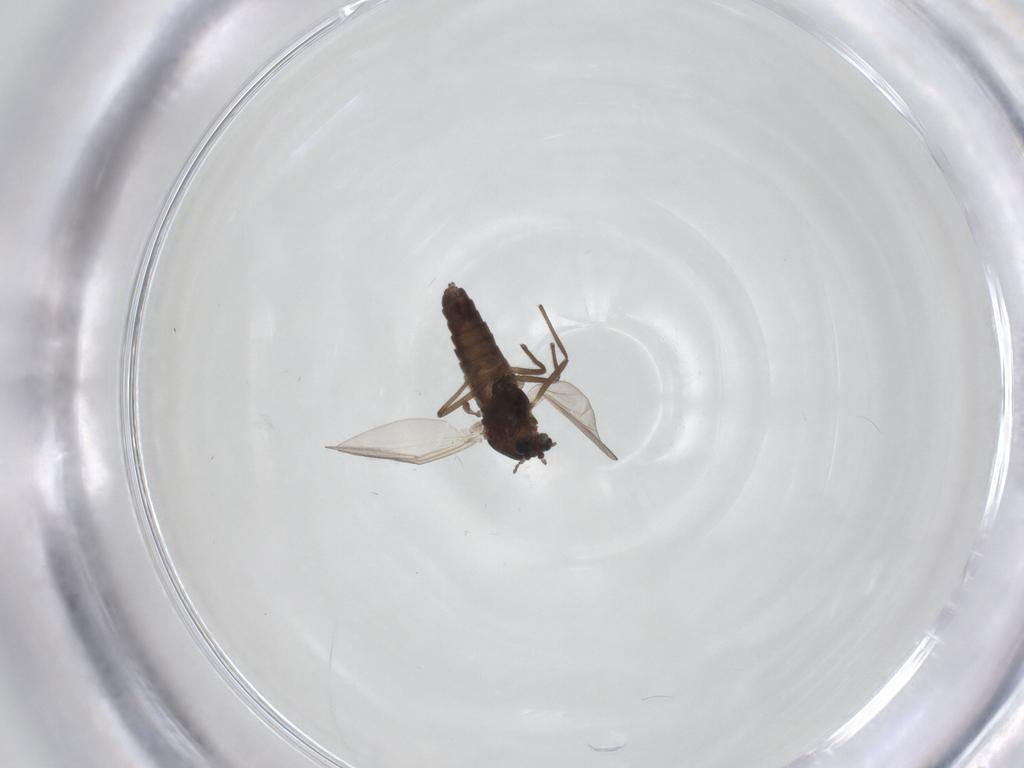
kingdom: Animalia
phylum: Arthropoda
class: Insecta
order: Diptera
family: Chironomidae
